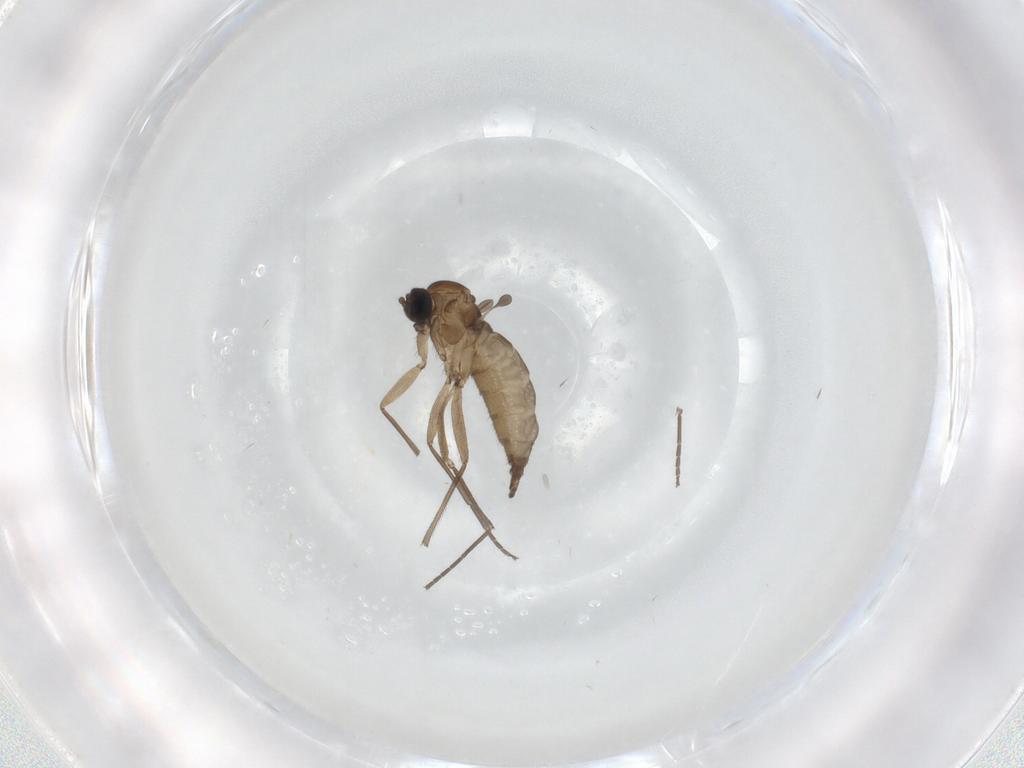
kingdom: Animalia
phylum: Arthropoda
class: Insecta
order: Diptera
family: Sciaridae
